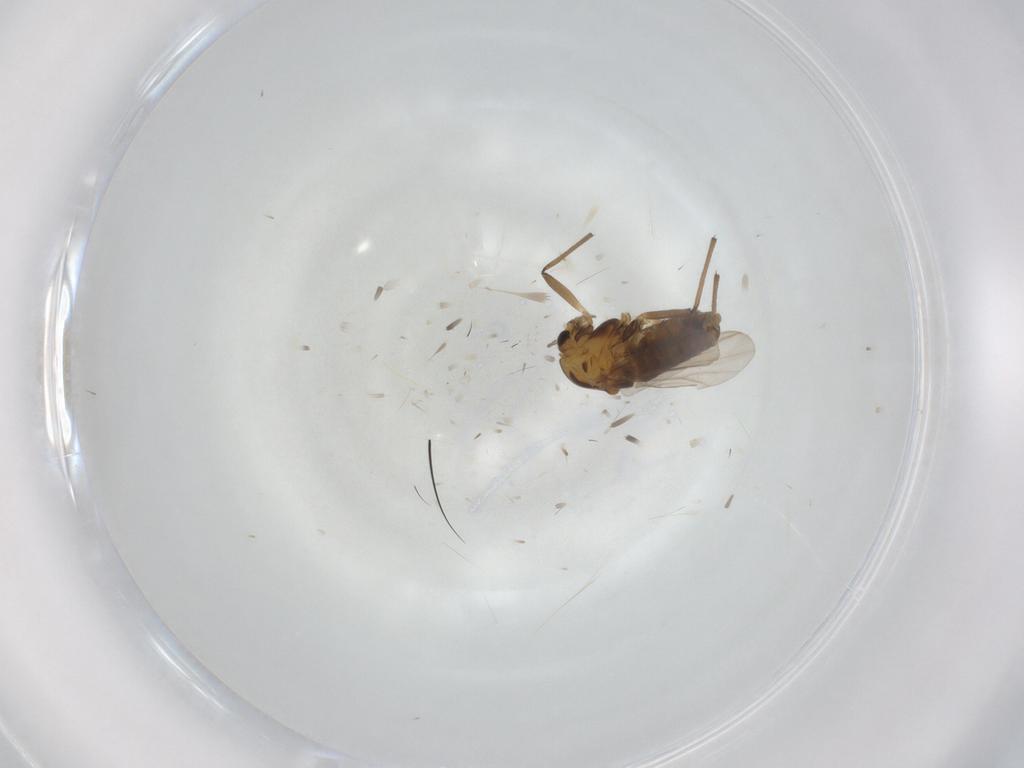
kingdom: Animalia
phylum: Arthropoda
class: Insecta
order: Diptera
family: Chironomidae
